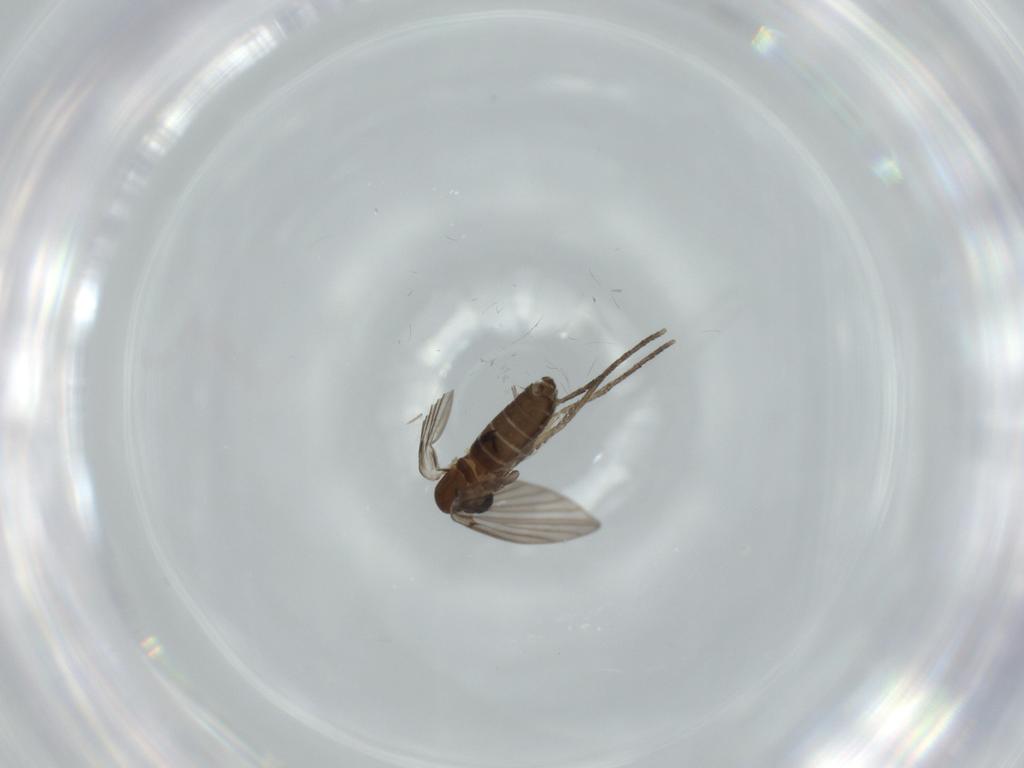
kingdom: Animalia
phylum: Arthropoda
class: Insecta
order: Diptera
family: Psychodidae
